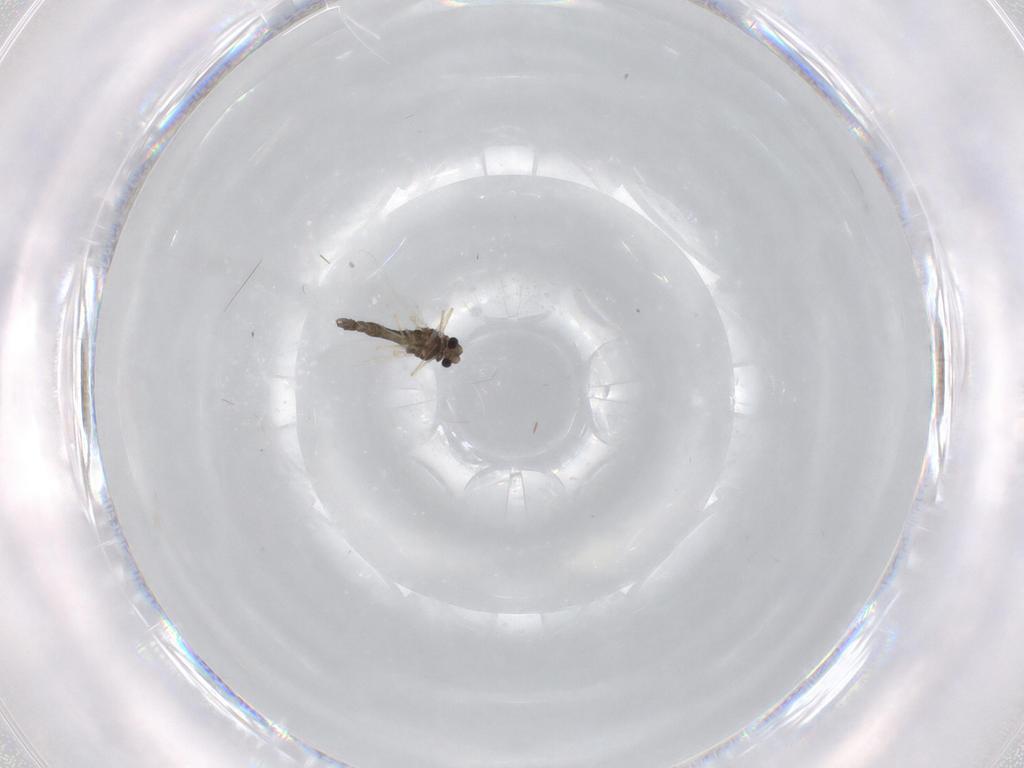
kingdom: Animalia
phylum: Arthropoda
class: Insecta
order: Diptera
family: Chironomidae
